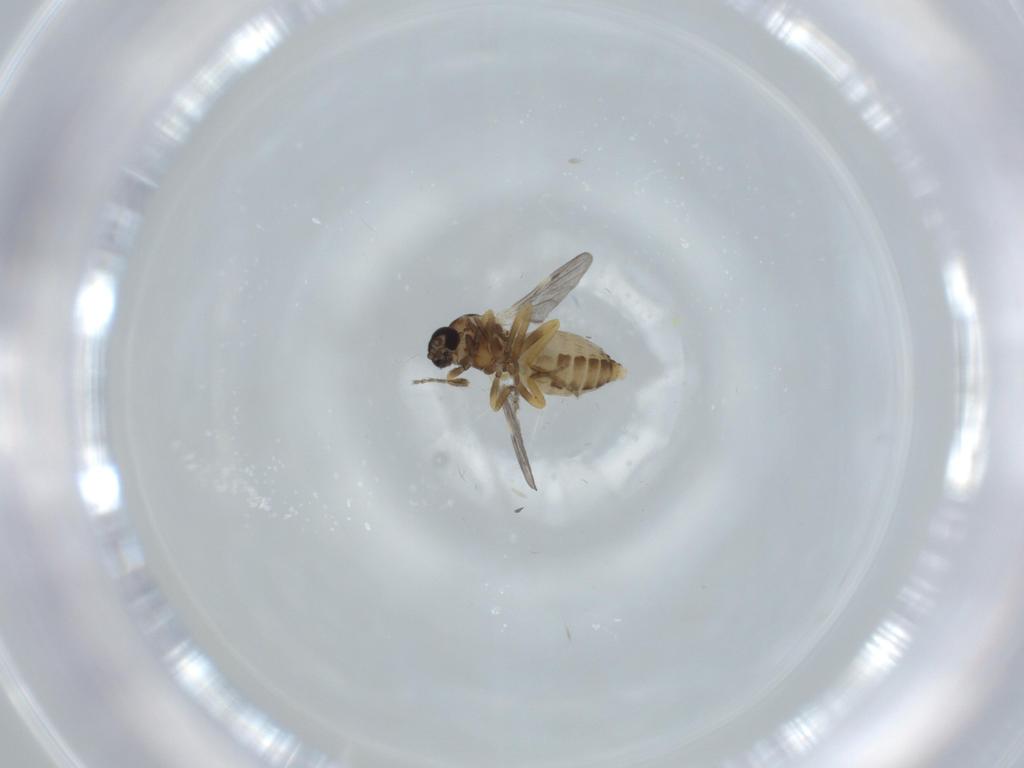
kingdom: Animalia
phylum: Arthropoda
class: Insecta
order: Diptera
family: Ceratopogonidae
